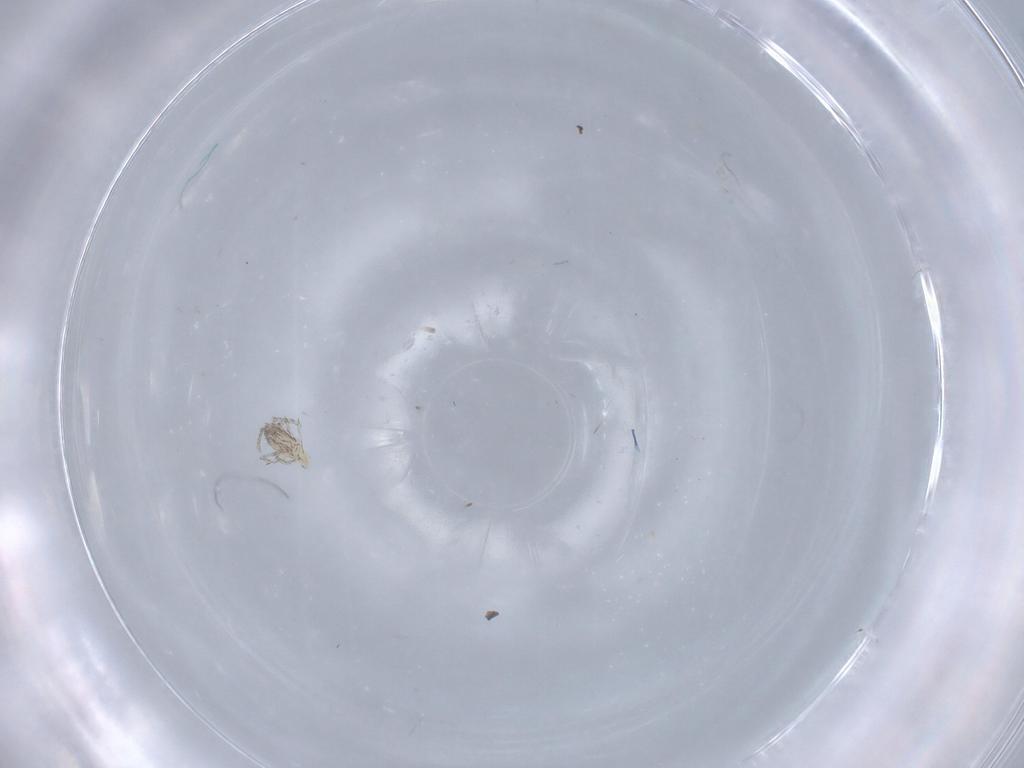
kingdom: Animalia
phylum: Arthropoda
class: Arachnida
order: Trombidiformes
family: Erythraeidae
